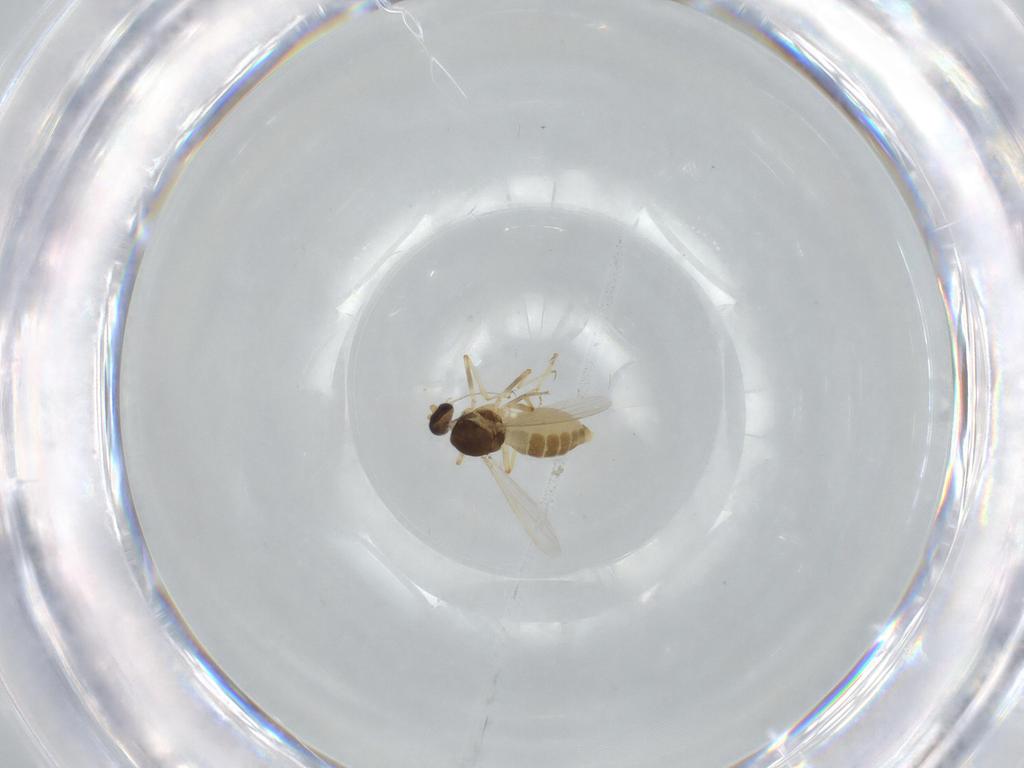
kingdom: Animalia
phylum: Arthropoda
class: Insecta
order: Diptera
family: Ceratopogonidae
